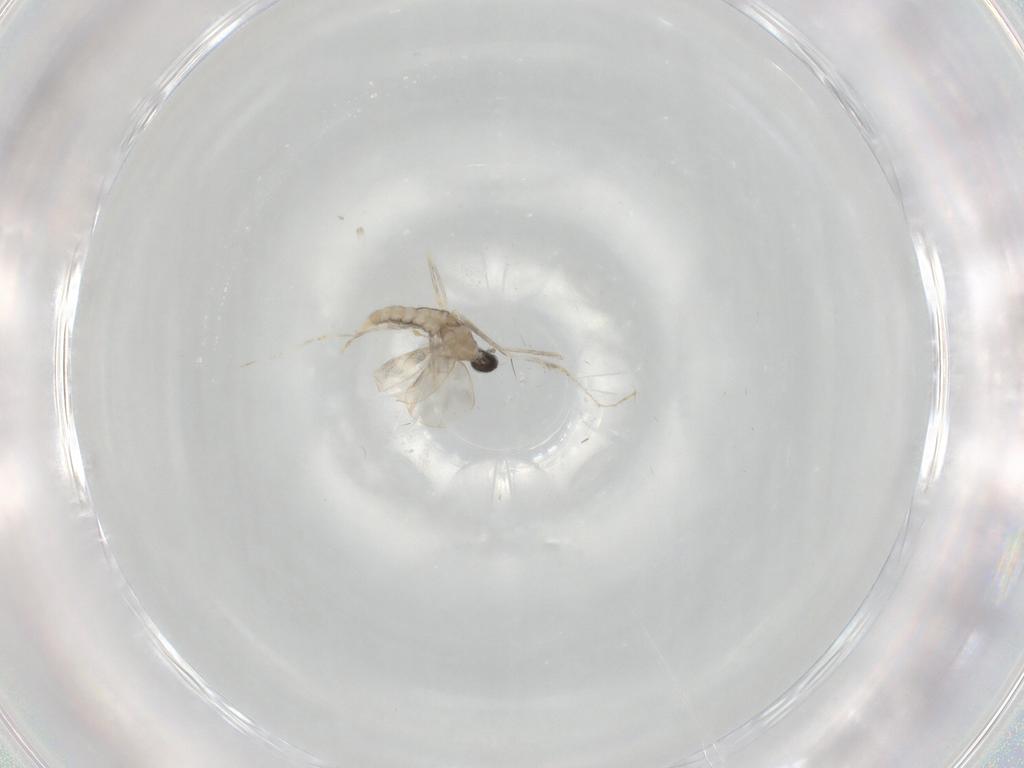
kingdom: Animalia
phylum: Arthropoda
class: Insecta
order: Diptera
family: Cecidomyiidae
